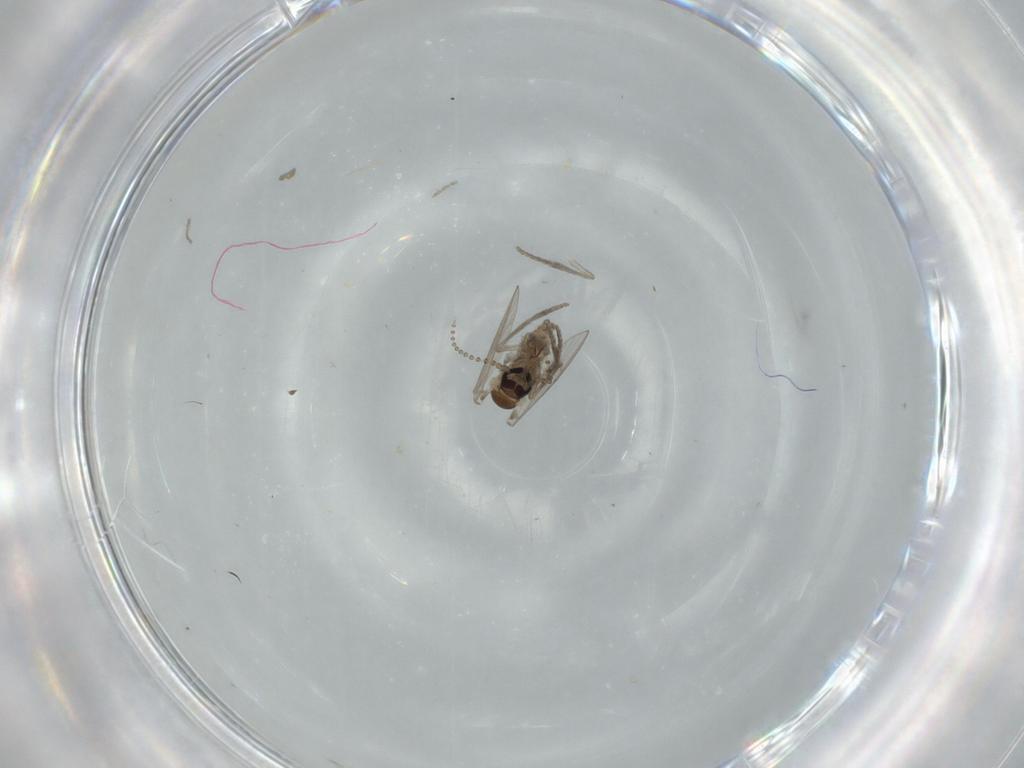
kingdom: Animalia
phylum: Arthropoda
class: Insecta
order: Diptera
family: Psychodidae
